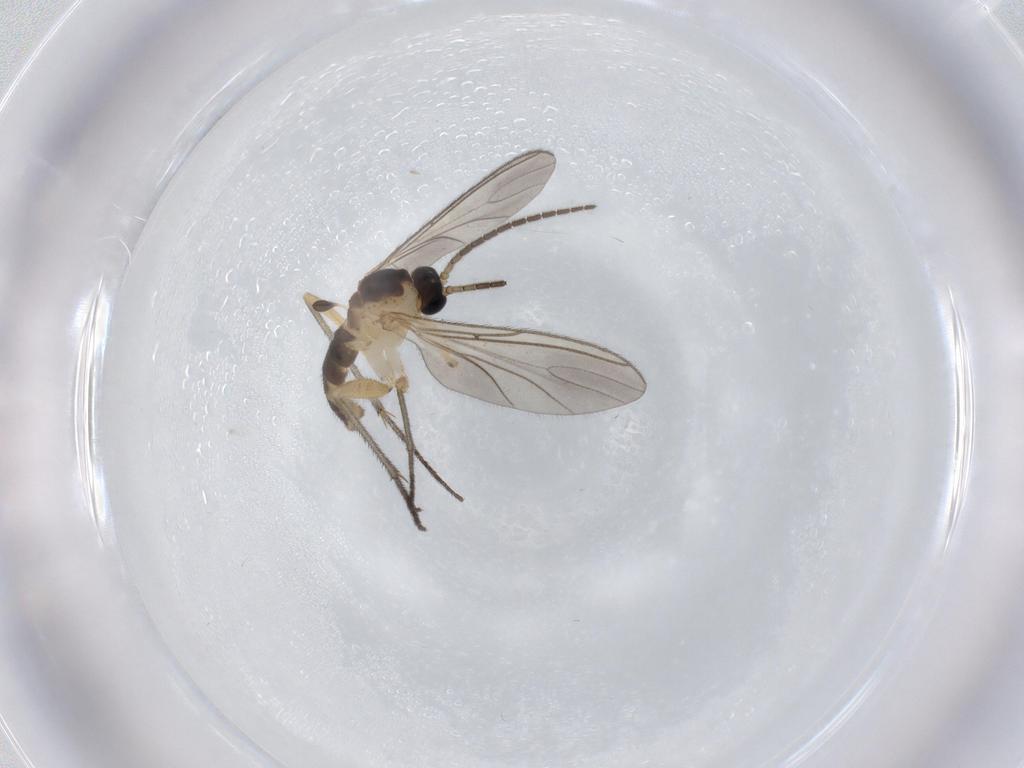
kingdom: Animalia
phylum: Arthropoda
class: Insecta
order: Diptera
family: Sciaridae
